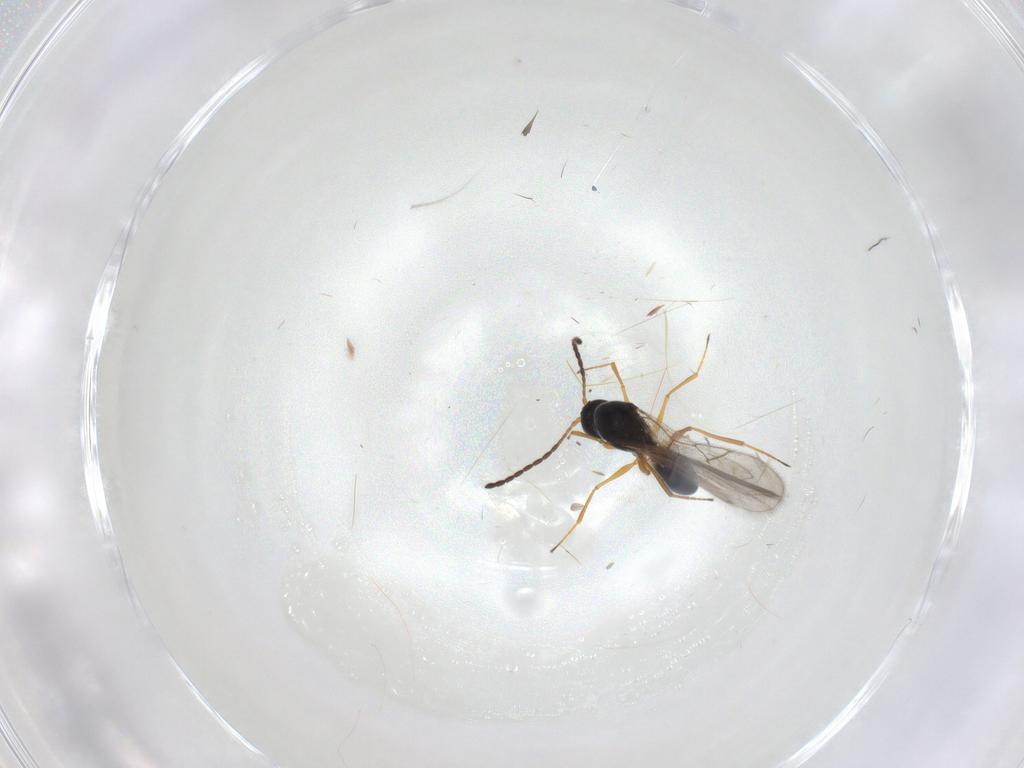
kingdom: Animalia
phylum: Arthropoda
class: Insecta
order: Hymenoptera
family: Figitidae
